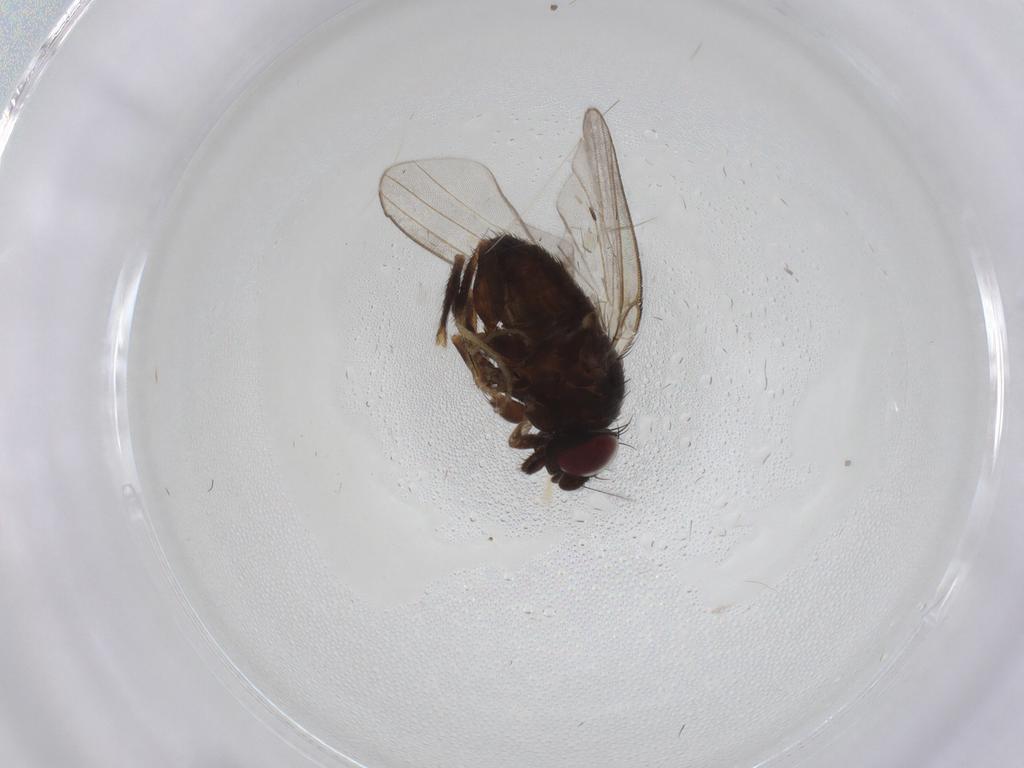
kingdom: Animalia
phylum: Arthropoda
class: Insecta
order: Diptera
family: Milichiidae
